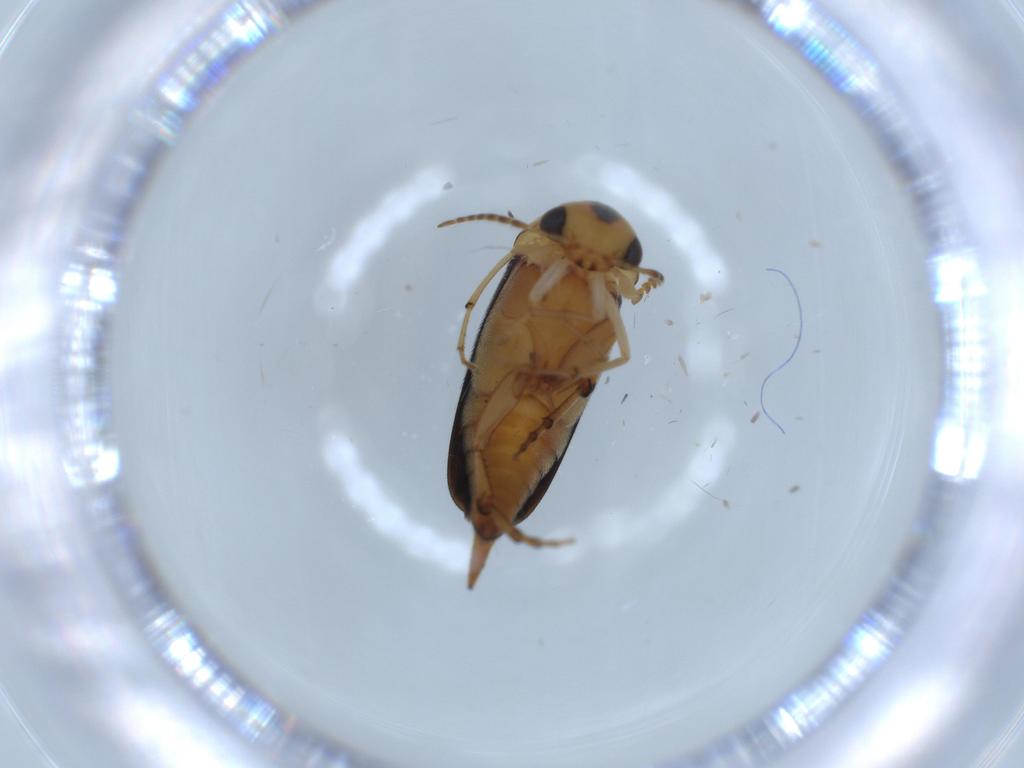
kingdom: Animalia
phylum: Arthropoda
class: Insecta
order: Coleoptera
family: Mordellidae
